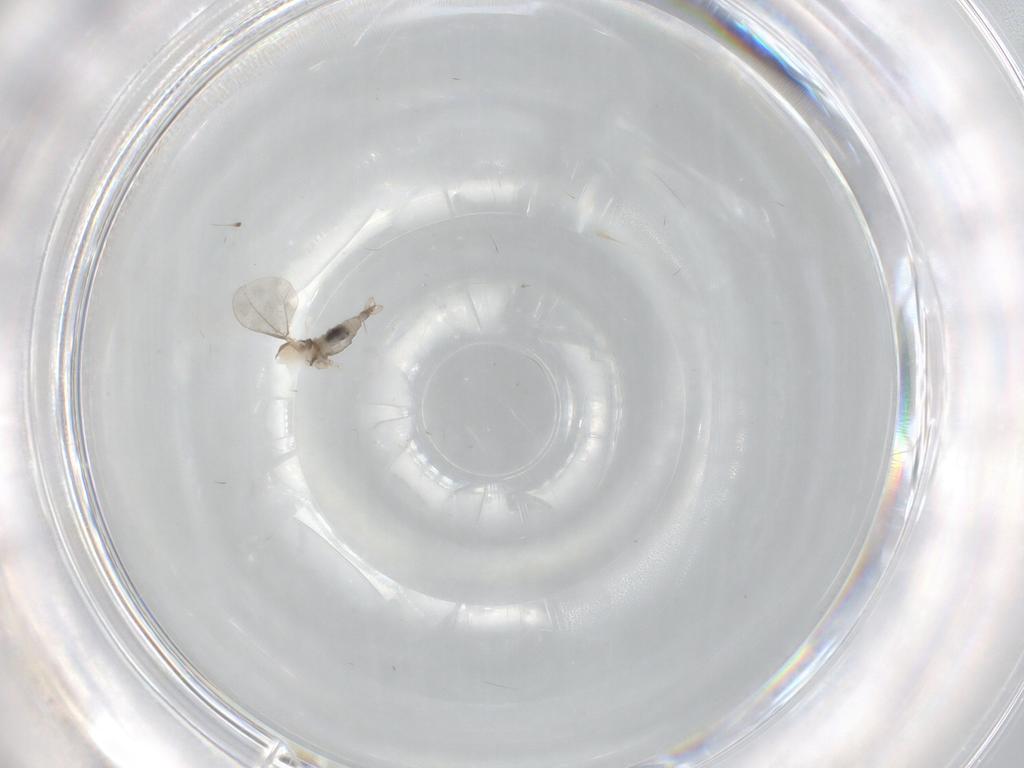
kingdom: Animalia
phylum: Arthropoda
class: Insecta
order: Diptera
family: Cecidomyiidae
